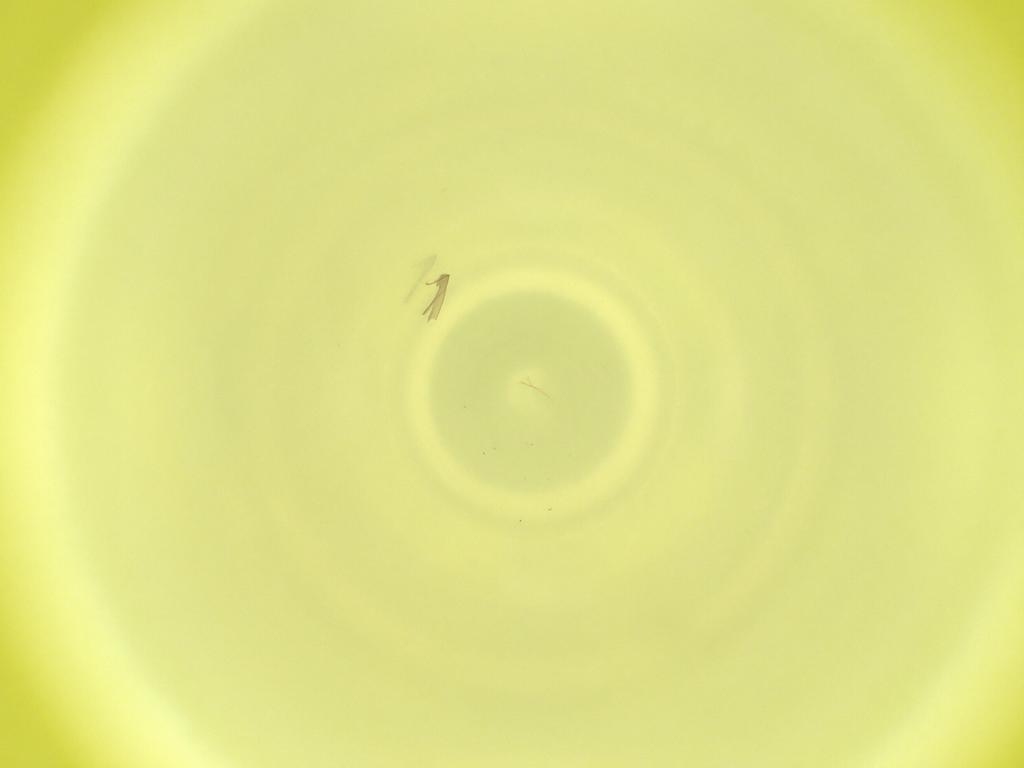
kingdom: Animalia
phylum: Arthropoda
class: Insecta
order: Diptera
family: Cecidomyiidae
